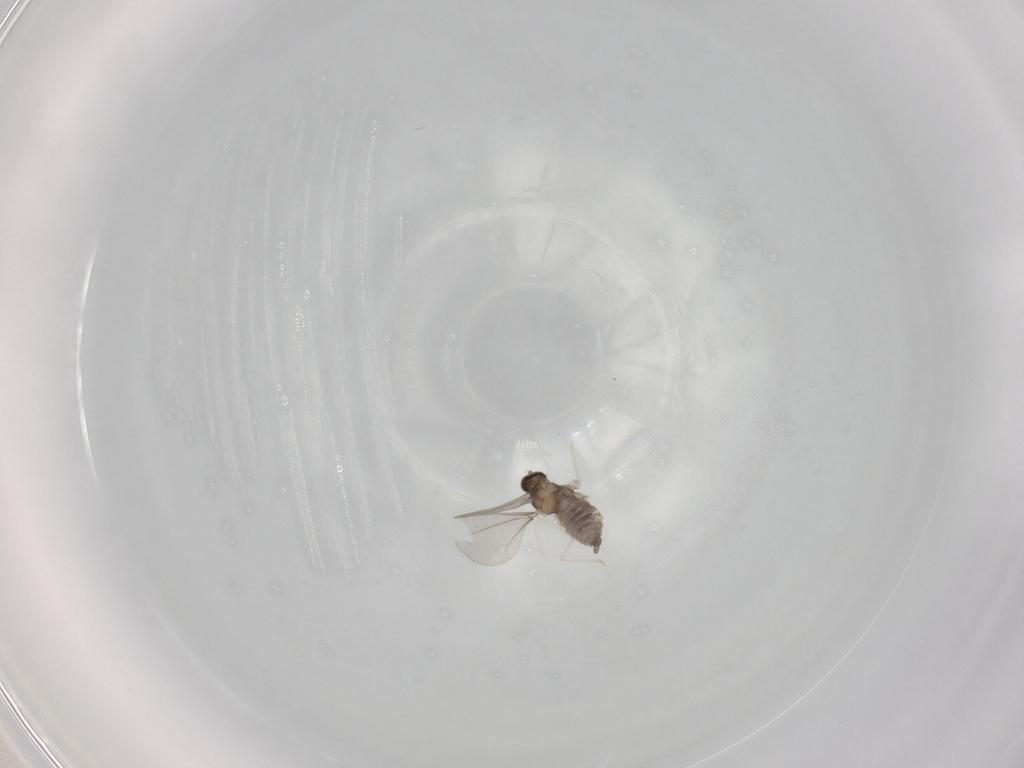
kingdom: Animalia
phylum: Arthropoda
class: Insecta
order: Diptera
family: Cecidomyiidae
